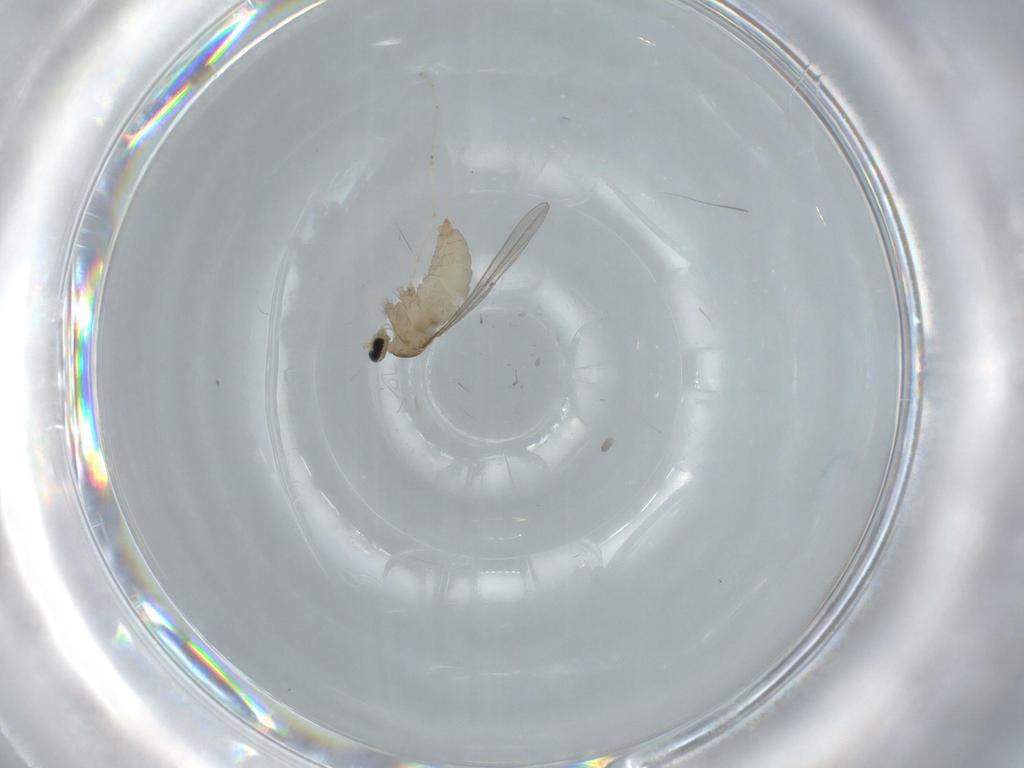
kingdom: Animalia
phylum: Arthropoda
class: Insecta
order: Diptera
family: Cecidomyiidae
